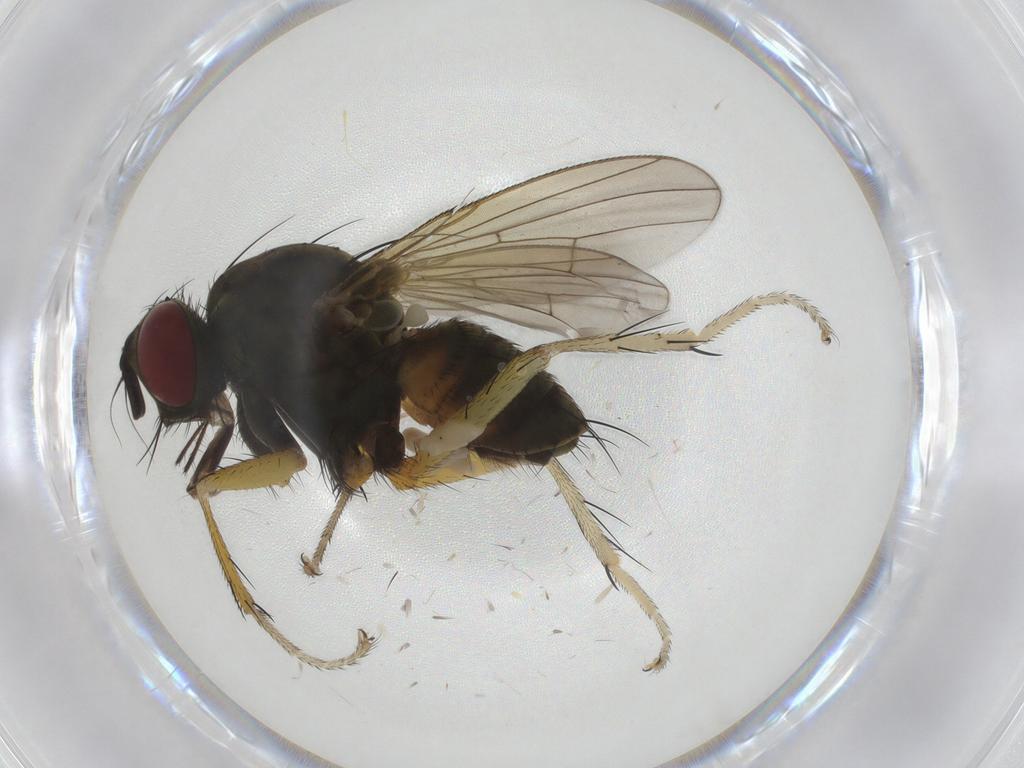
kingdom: Animalia
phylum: Arthropoda
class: Insecta
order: Diptera
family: Muscidae
